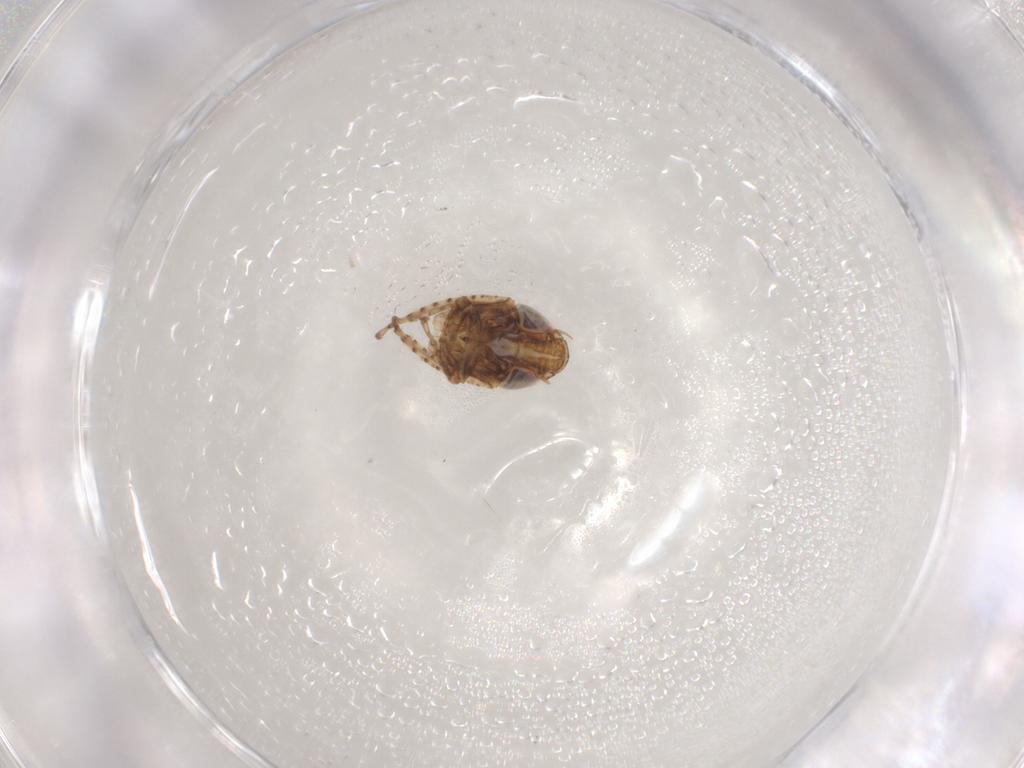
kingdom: Animalia
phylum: Arthropoda
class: Insecta
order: Hemiptera
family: Cicadellidae
